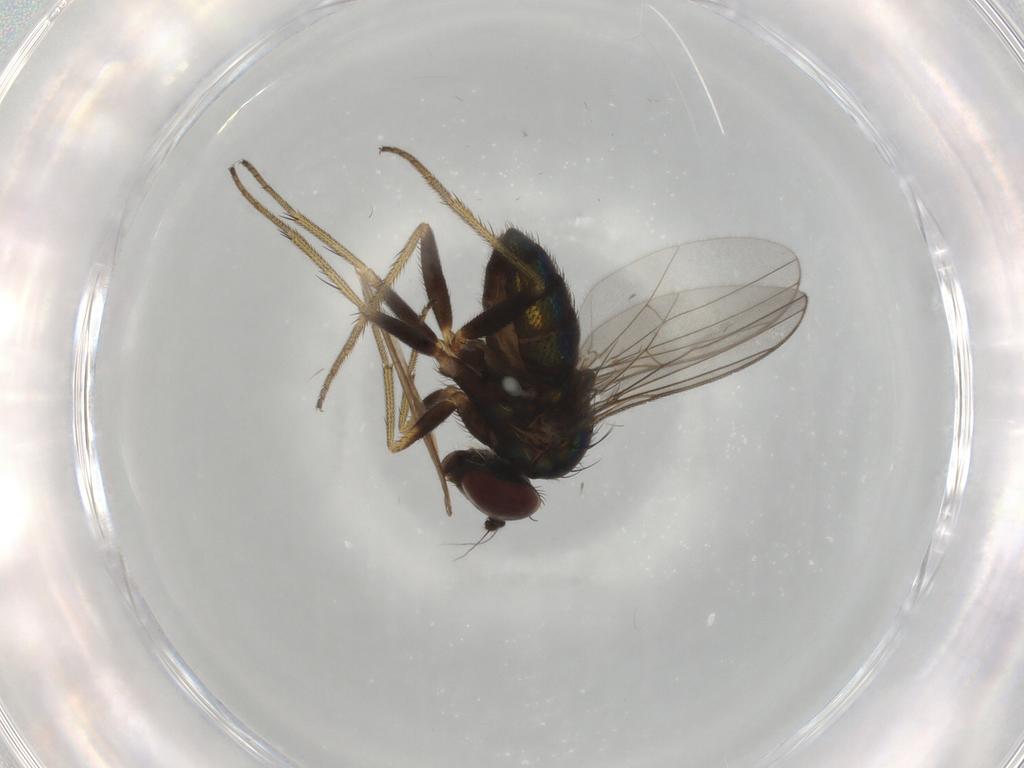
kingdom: Animalia
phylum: Arthropoda
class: Insecta
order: Diptera
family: Dolichopodidae
